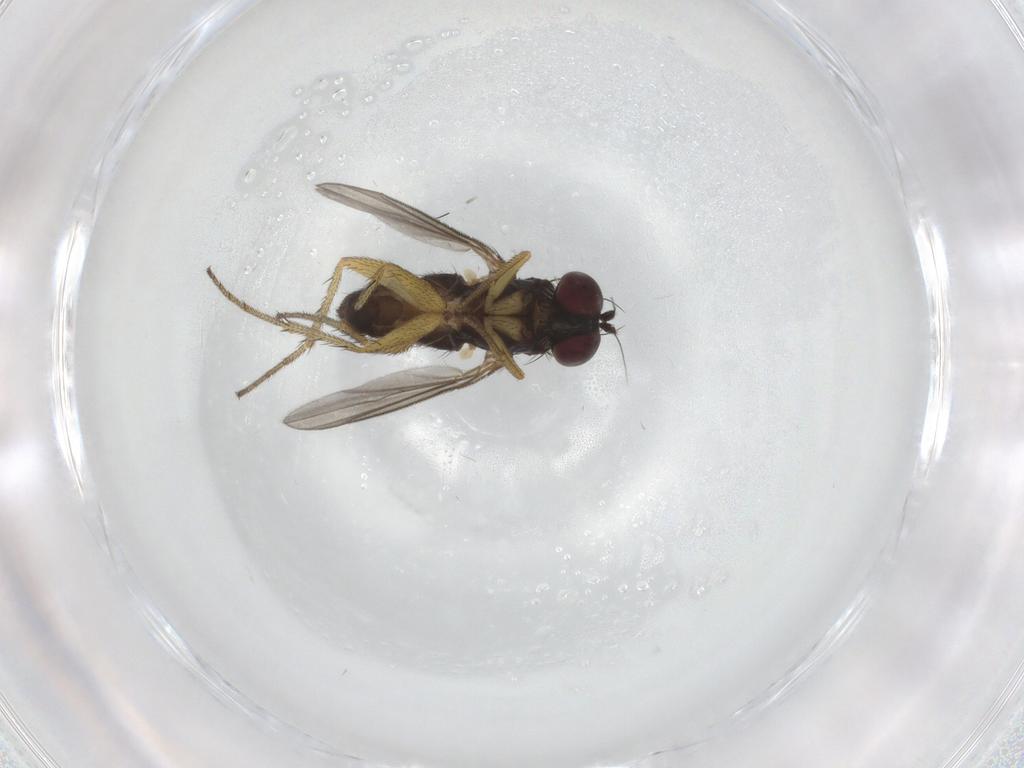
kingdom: Animalia
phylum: Arthropoda
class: Insecta
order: Diptera
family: Dolichopodidae
